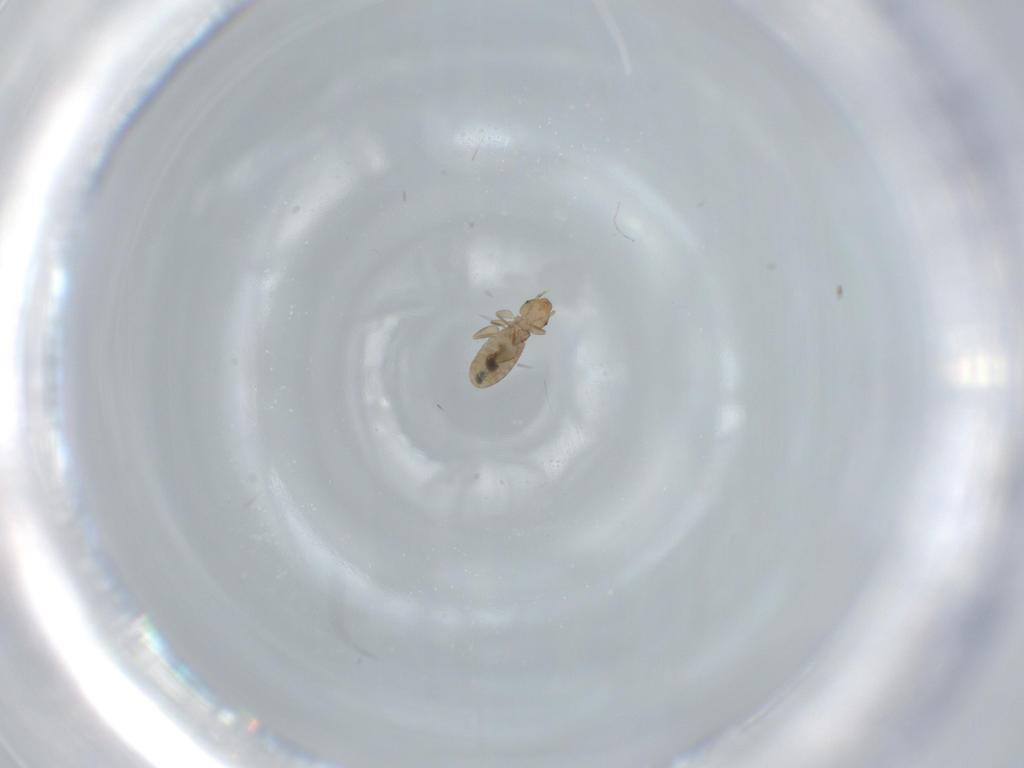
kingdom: Animalia
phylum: Arthropoda
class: Insecta
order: Psocodea
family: Liposcelididae
